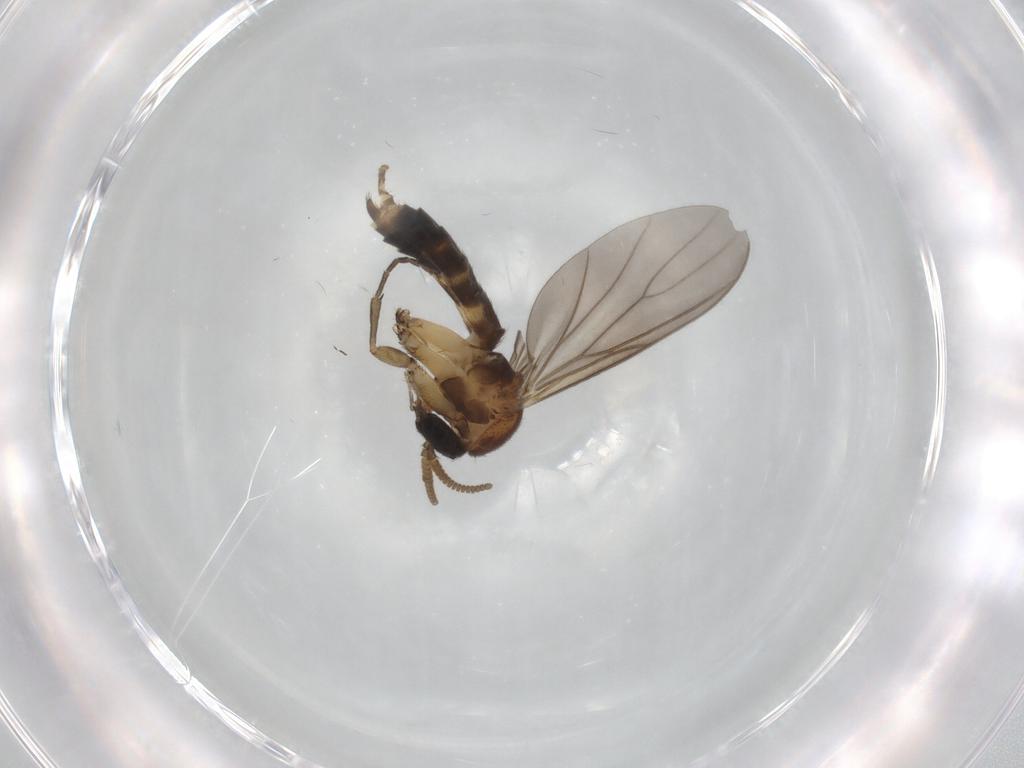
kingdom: Animalia
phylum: Arthropoda
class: Insecta
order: Diptera
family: Mycetophilidae
